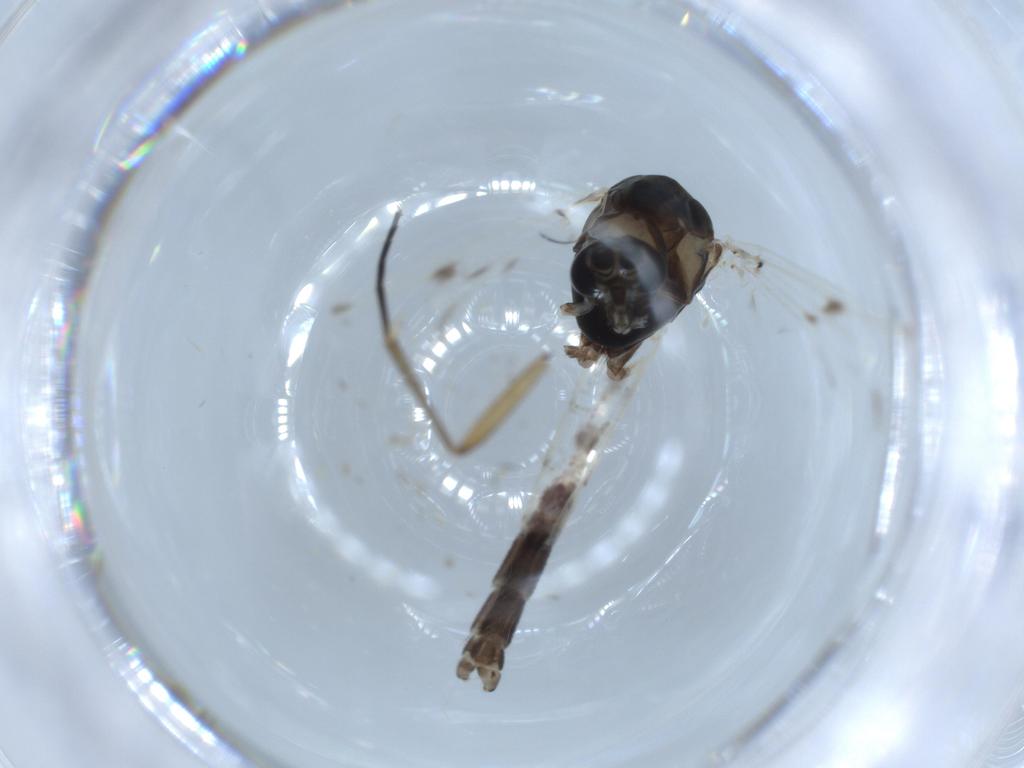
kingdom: Animalia
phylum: Arthropoda
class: Insecta
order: Diptera
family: Chironomidae
